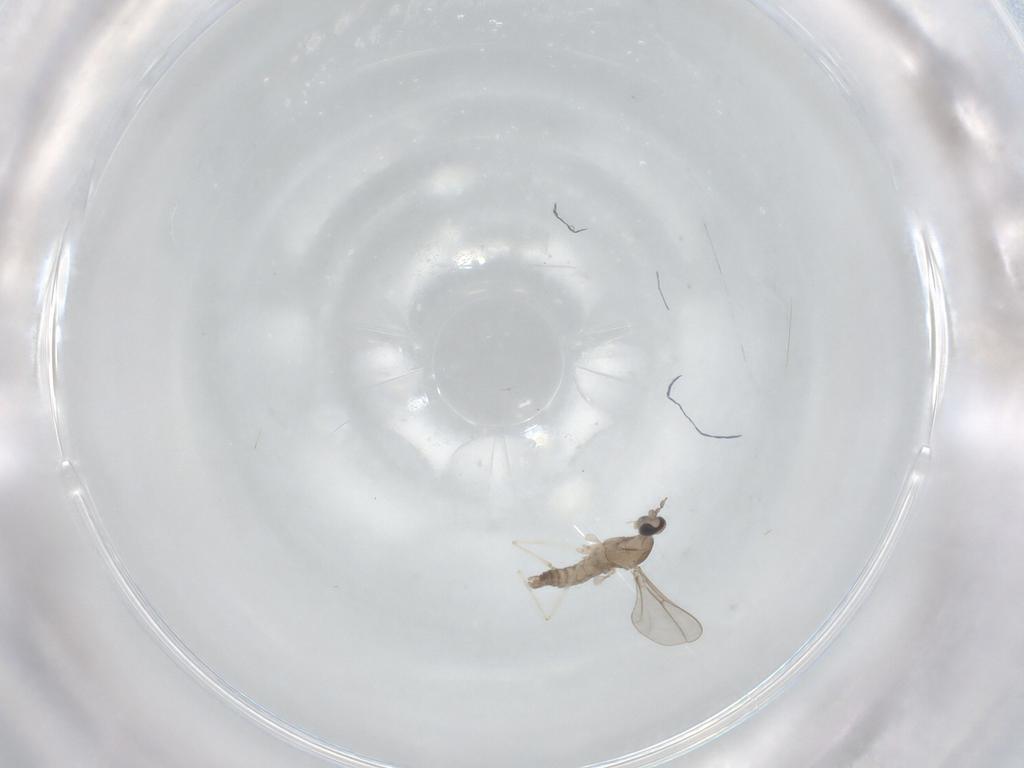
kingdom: Animalia
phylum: Arthropoda
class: Insecta
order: Diptera
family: Cecidomyiidae
